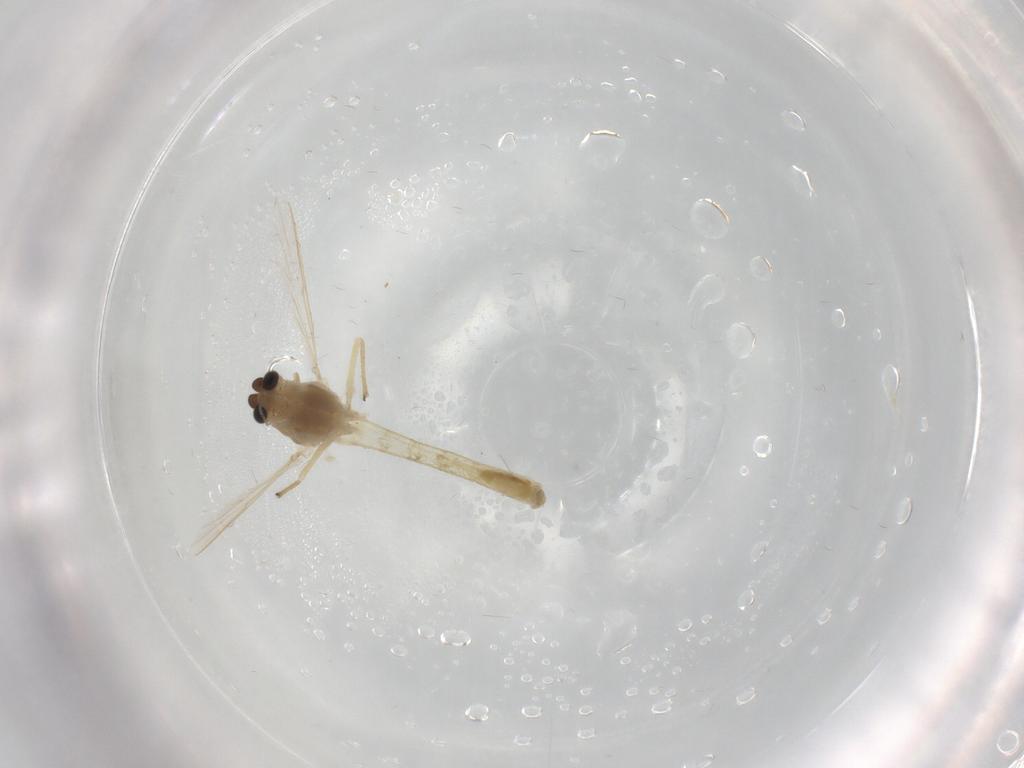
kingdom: Animalia
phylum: Arthropoda
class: Insecta
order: Diptera
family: Chironomidae
